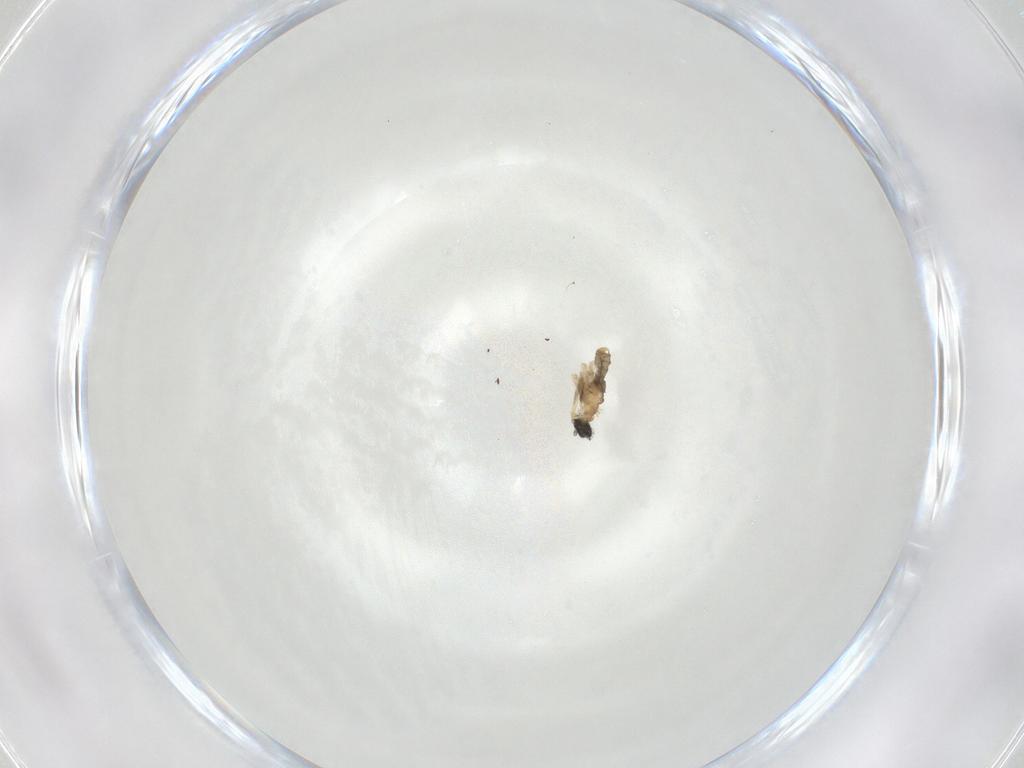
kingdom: Animalia
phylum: Arthropoda
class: Insecta
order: Diptera
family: Cecidomyiidae
